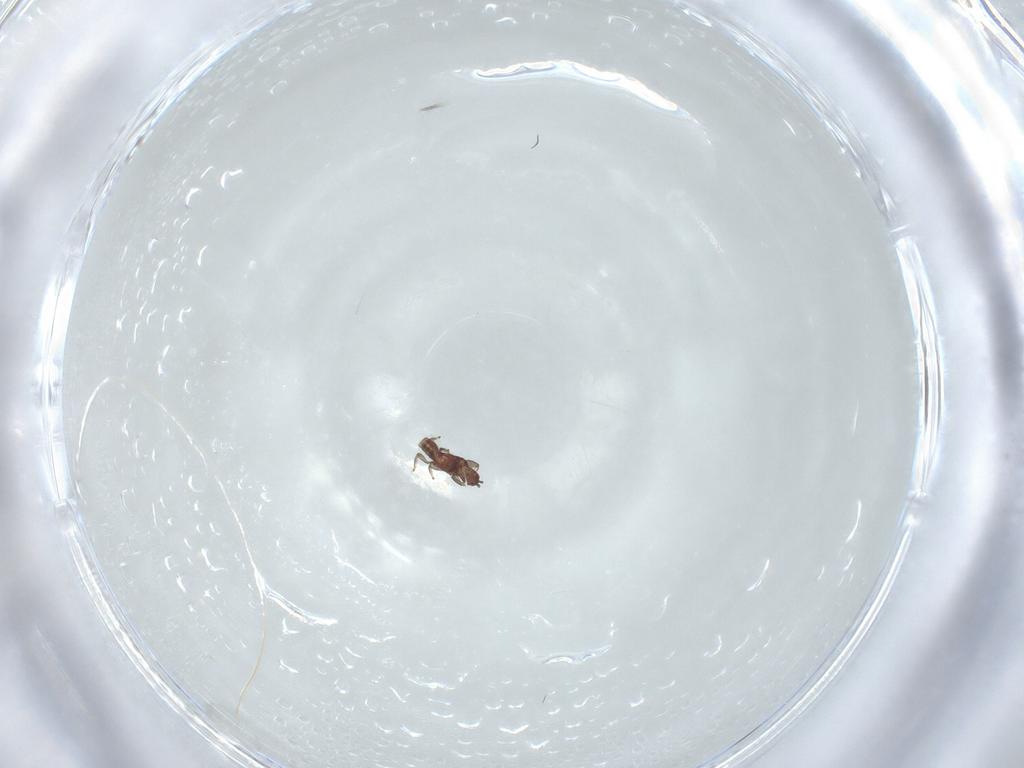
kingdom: Animalia
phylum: Arthropoda
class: Insecta
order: Thysanoptera
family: Phlaeothripidae
